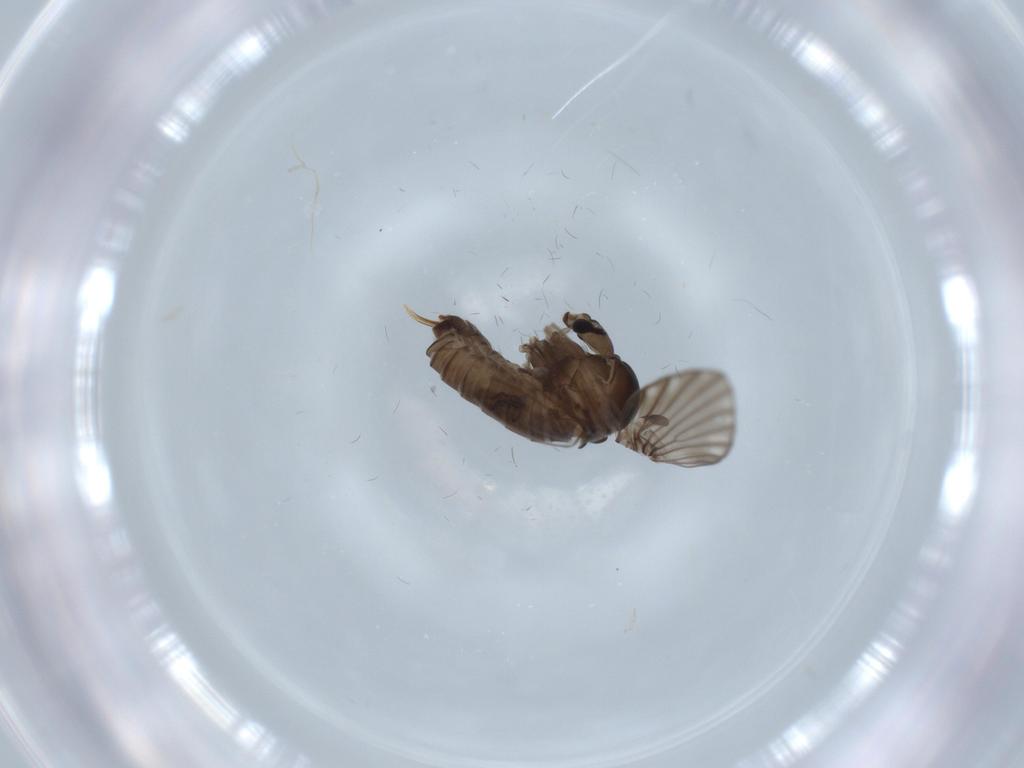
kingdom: Animalia
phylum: Arthropoda
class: Insecta
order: Diptera
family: Psychodidae
